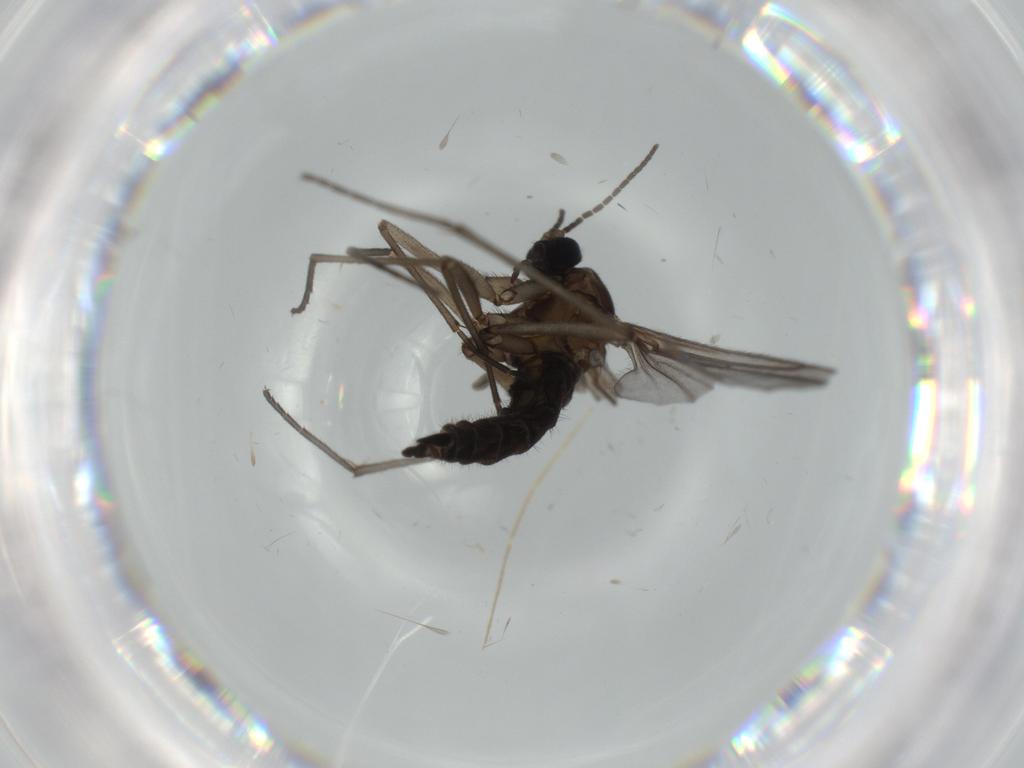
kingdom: Animalia
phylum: Arthropoda
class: Insecta
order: Diptera
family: Sciaridae
